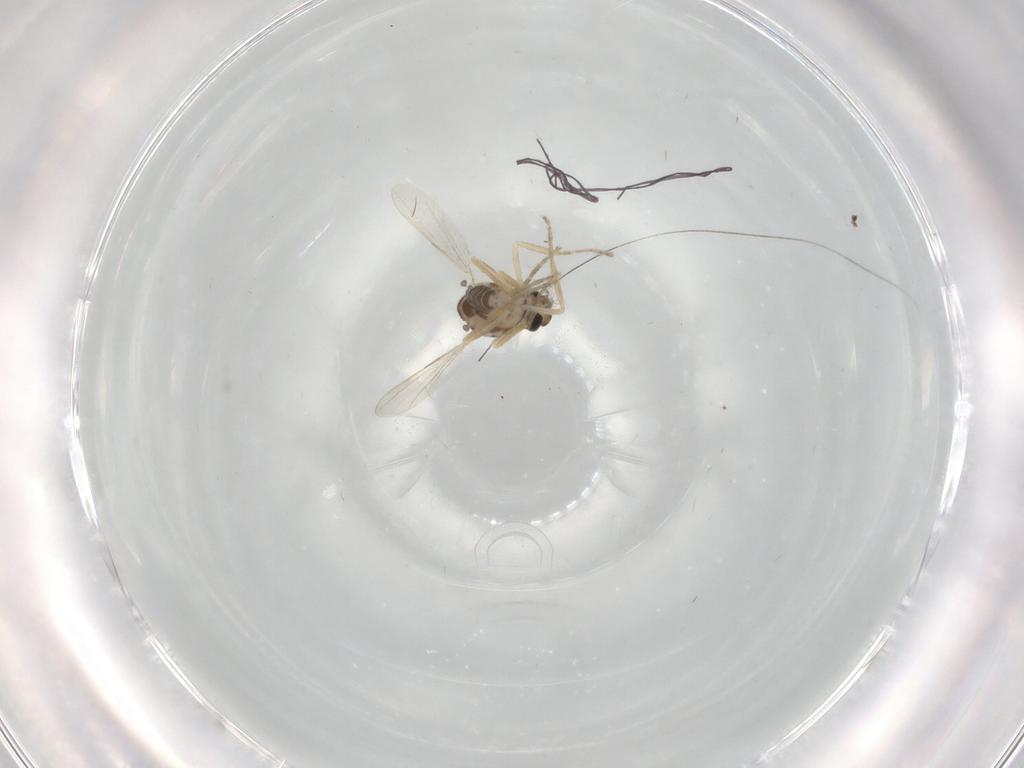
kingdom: Animalia
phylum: Arthropoda
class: Insecta
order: Diptera
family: Ceratopogonidae
